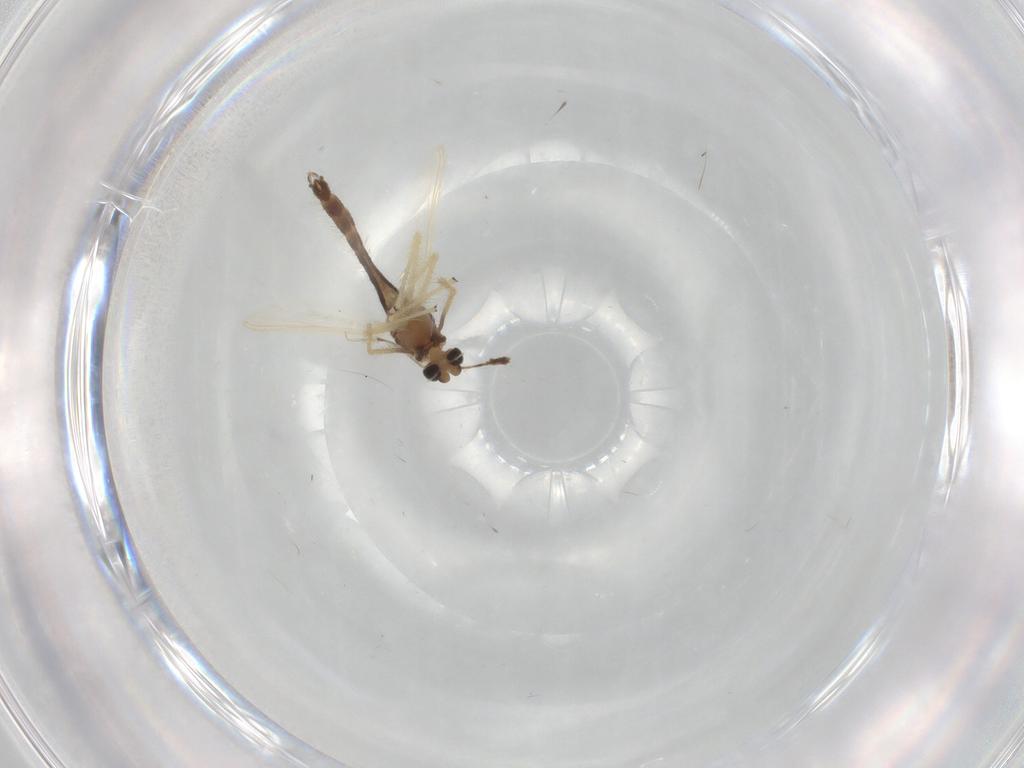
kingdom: Animalia
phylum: Arthropoda
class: Insecta
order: Diptera
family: Chironomidae
